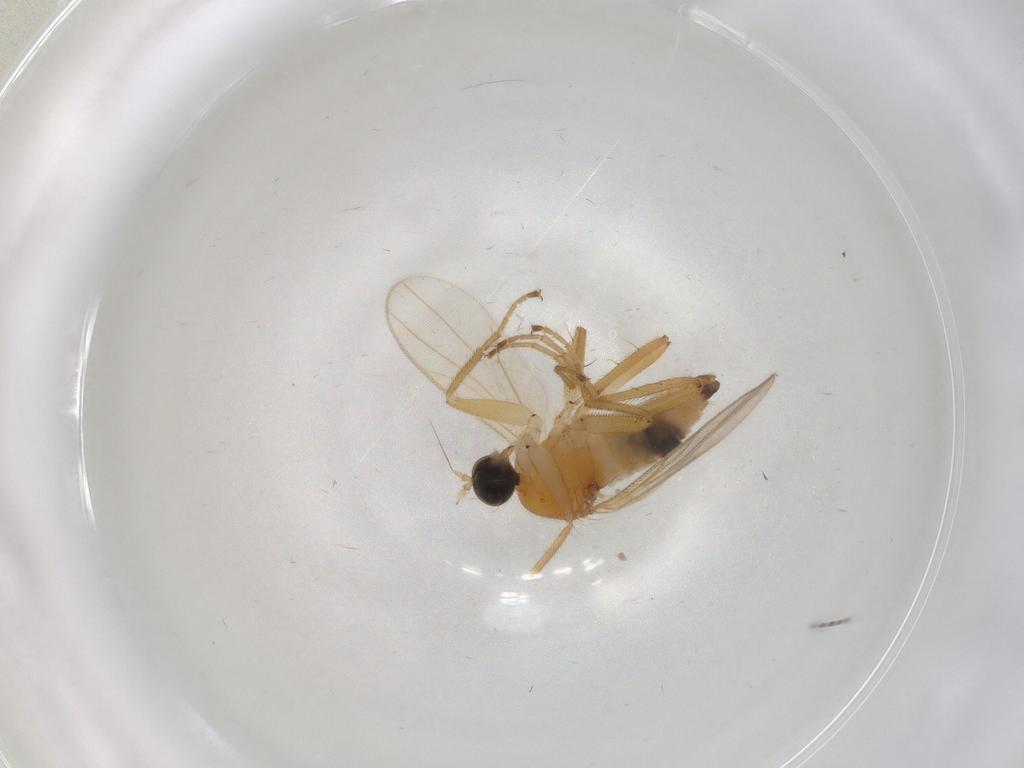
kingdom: Animalia
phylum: Arthropoda
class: Insecta
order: Diptera
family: Hybotidae
